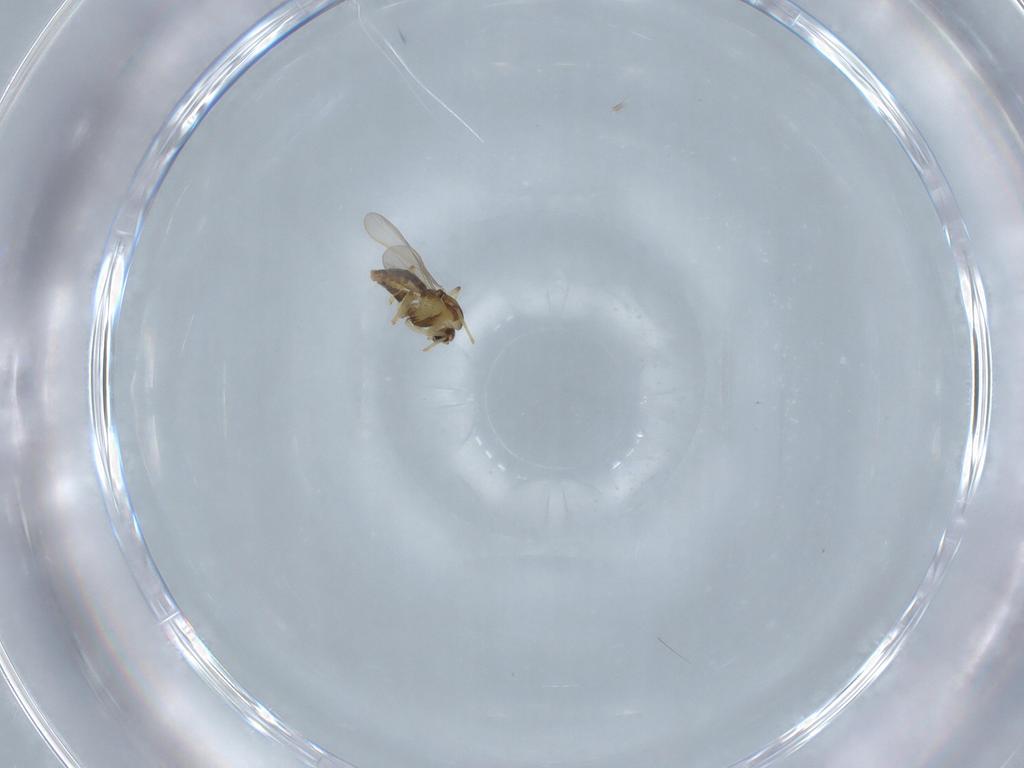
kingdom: Animalia
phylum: Arthropoda
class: Insecta
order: Diptera
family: Chironomidae
